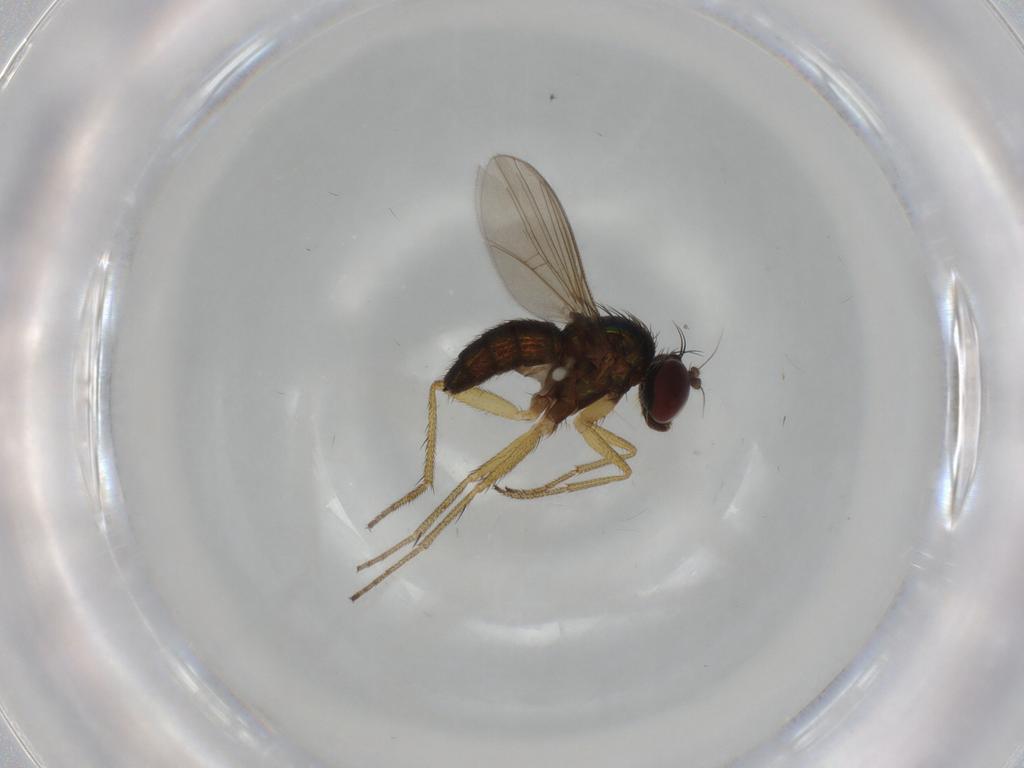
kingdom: Animalia
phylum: Arthropoda
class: Insecta
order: Diptera
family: Dolichopodidae
